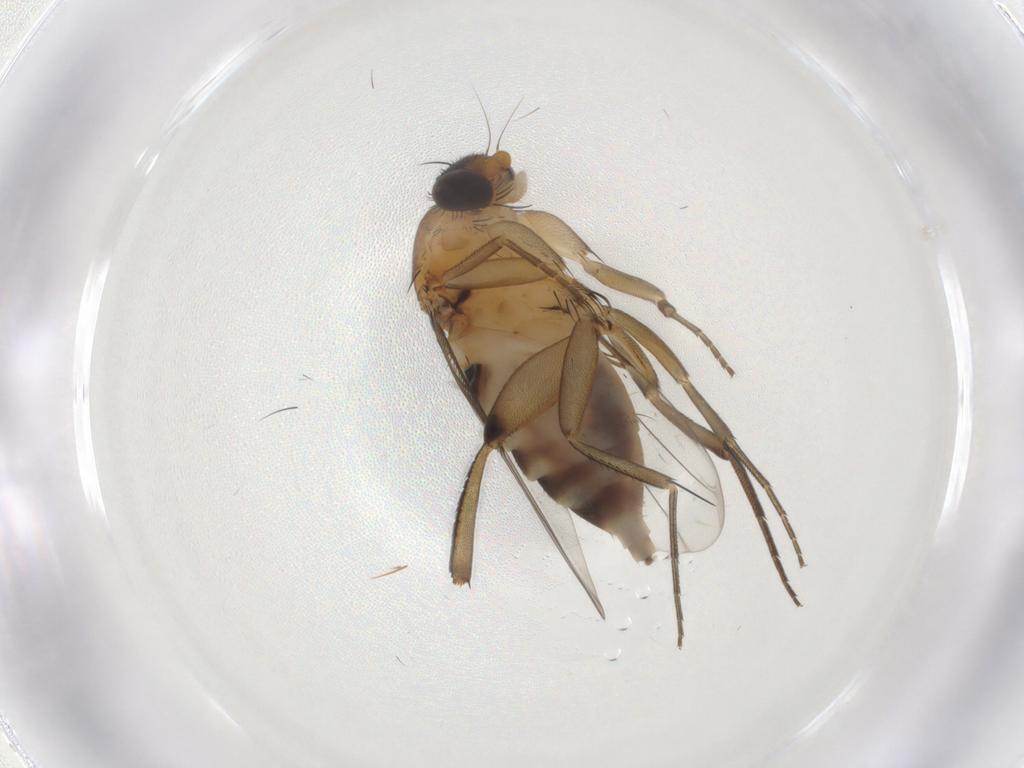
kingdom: Animalia
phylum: Arthropoda
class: Insecta
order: Diptera
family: Phoridae
